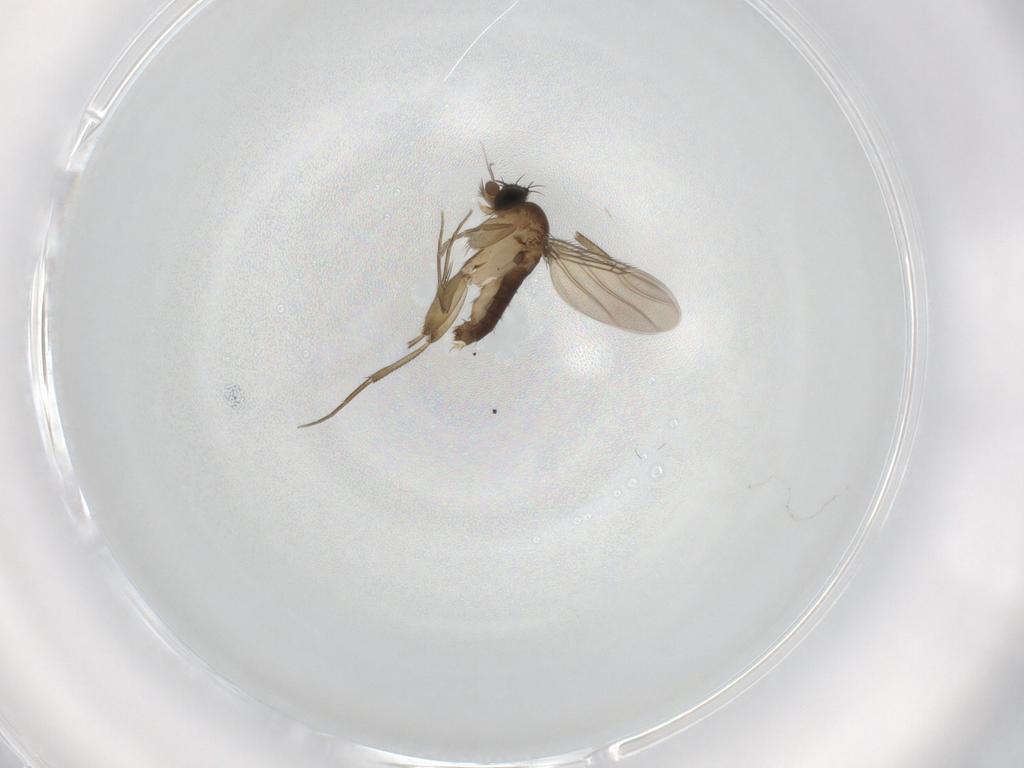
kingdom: Animalia
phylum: Arthropoda
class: Insecta
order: Diptera
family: Phoridae
